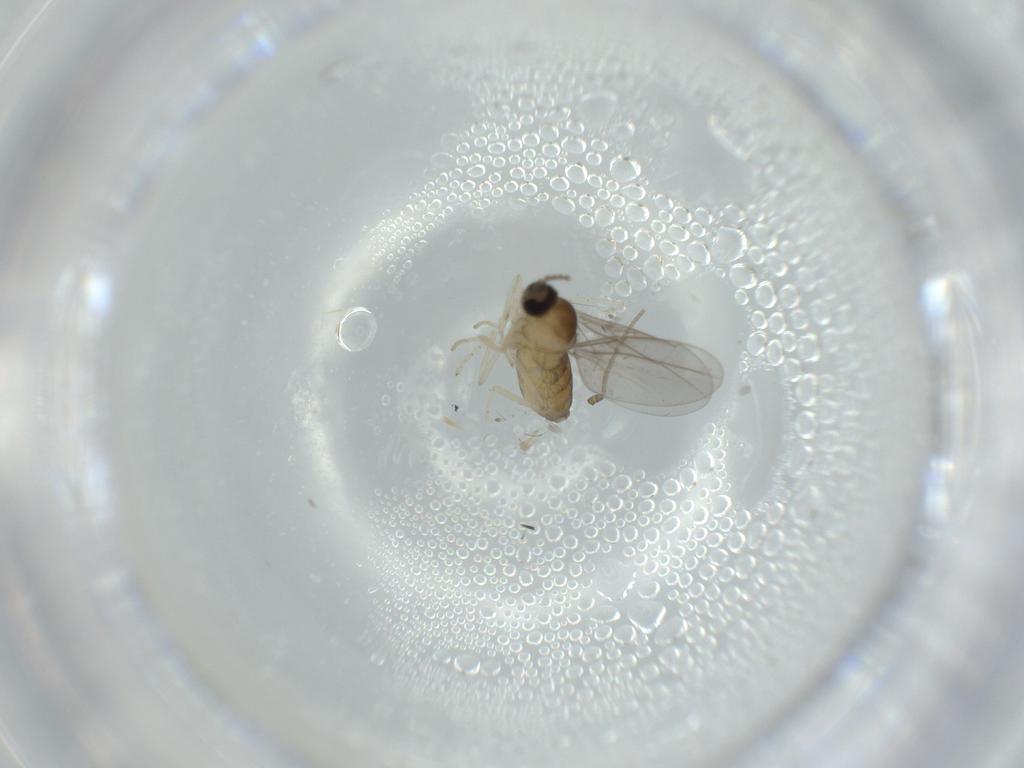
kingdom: Animalia
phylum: Arthropoda
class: Insecta
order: Diptera
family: Cecidomyiidae
